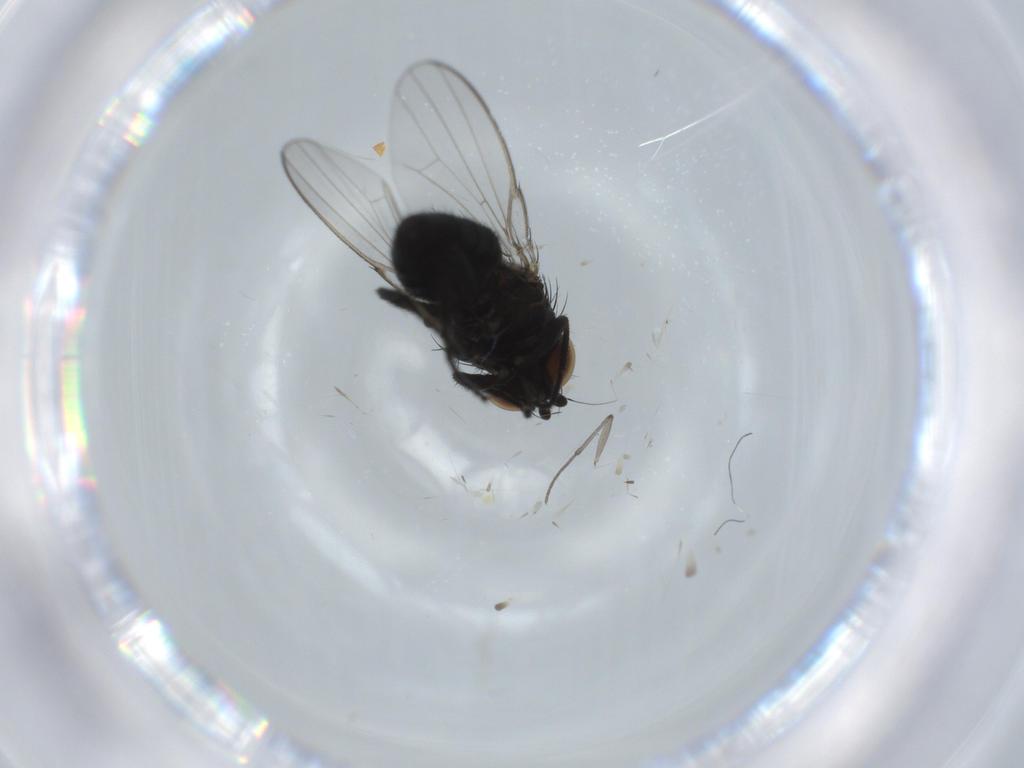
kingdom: Animalia
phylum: Arthropoda
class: Insecta
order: Diptera
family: Milichiidae
